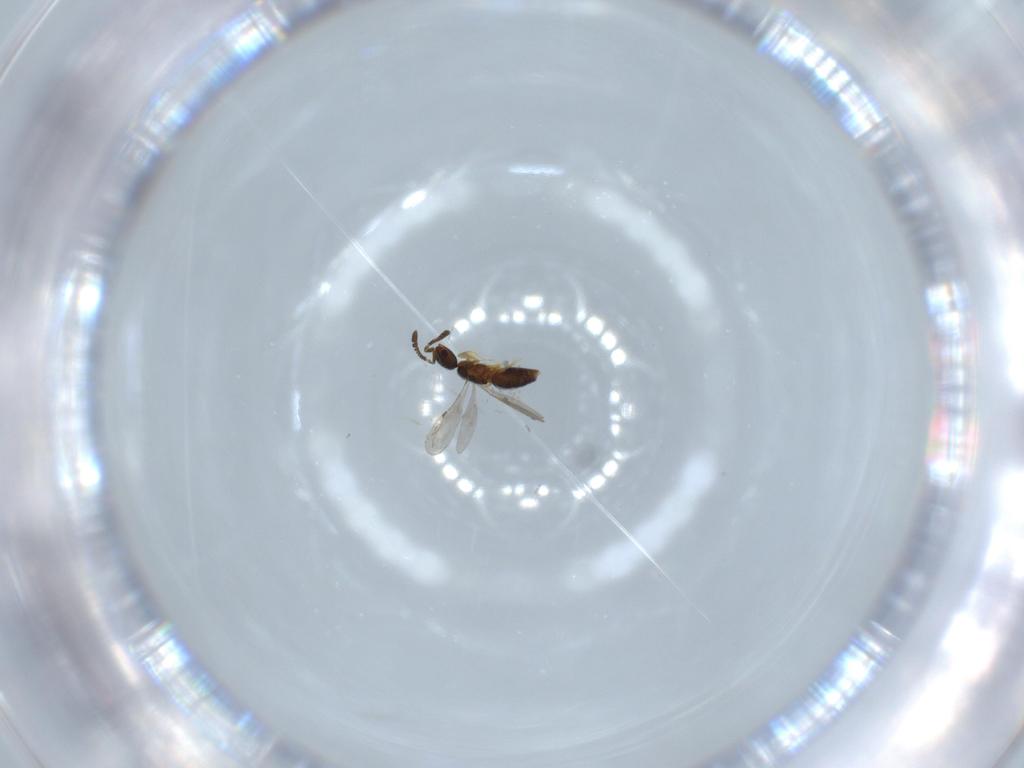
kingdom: Animalia
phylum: Arthropoda
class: Insecta
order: Hymenoptera
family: Ceraphronidae
